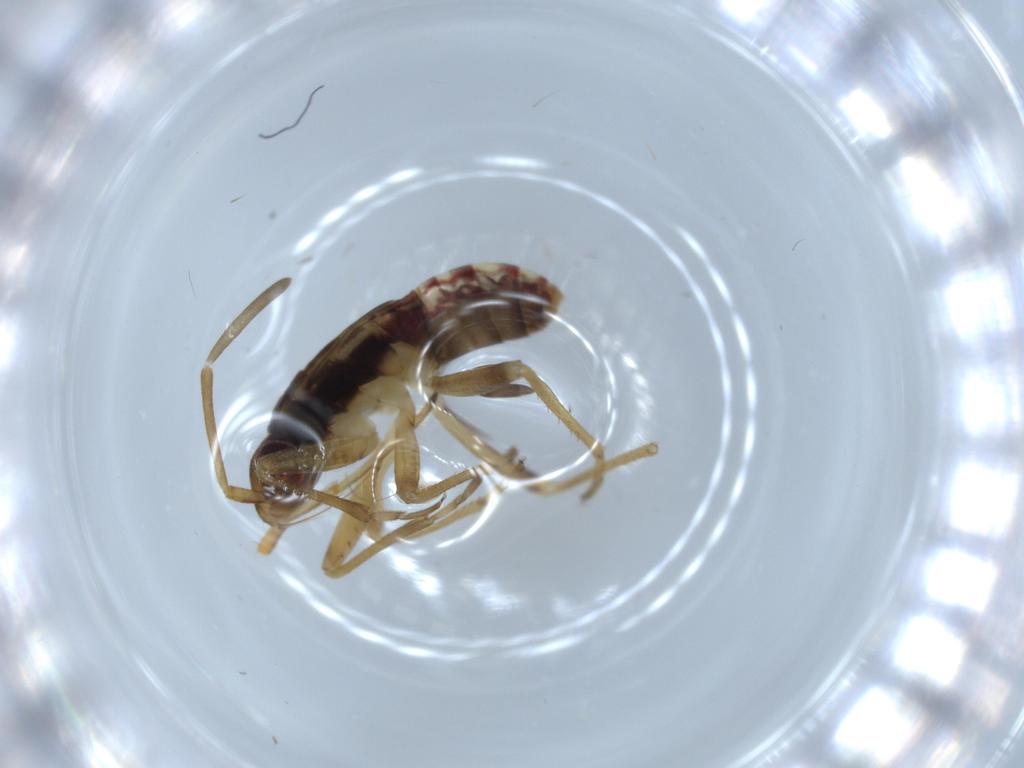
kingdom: Animalia
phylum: Arthropoda
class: Insecta
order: Hemiptera
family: Rhyparochromidae
